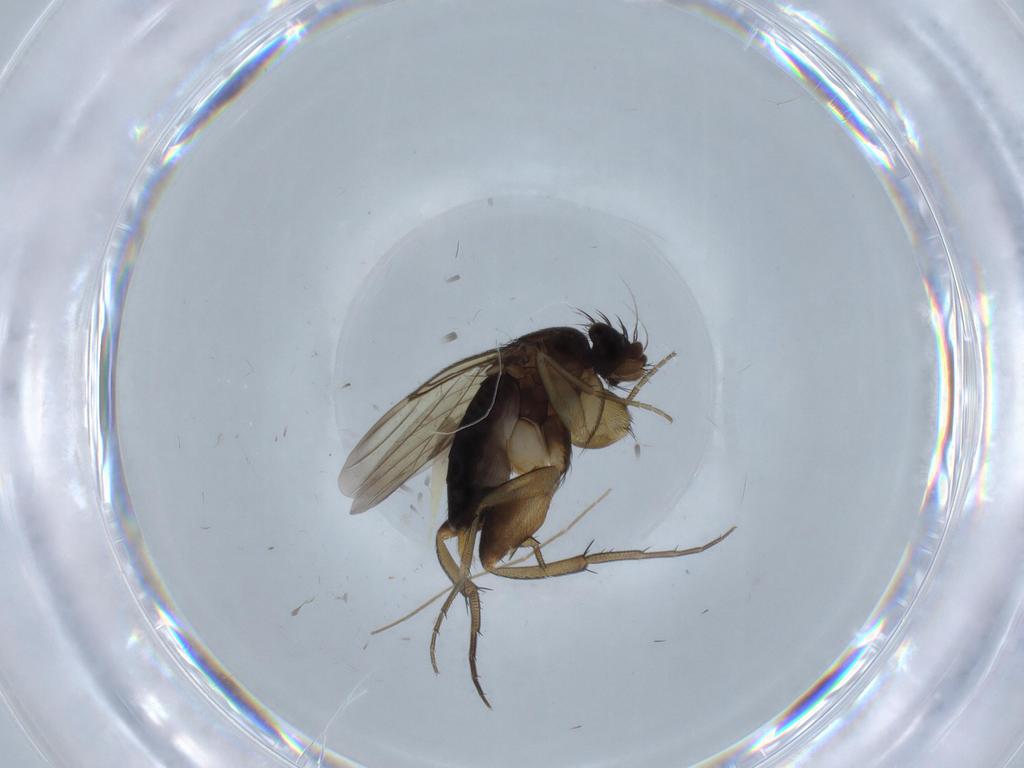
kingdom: Animalia
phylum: Arthropoda
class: Insecta
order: Diptera
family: Phoridae
